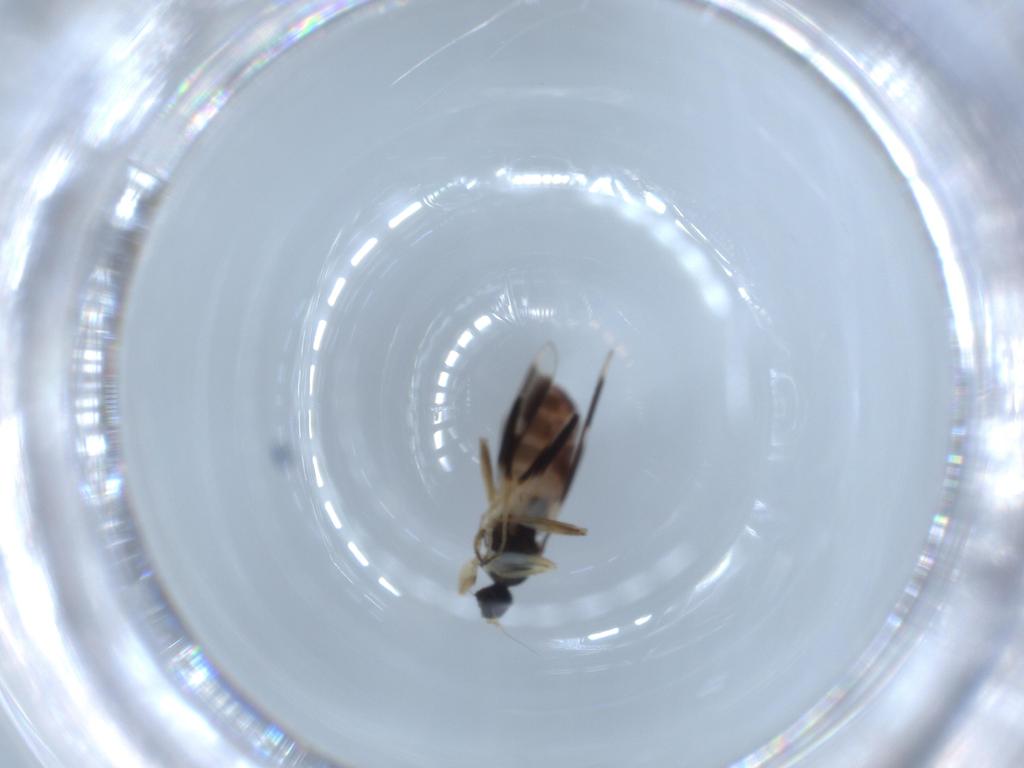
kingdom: Animalia
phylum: Arthropoda
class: Insecta
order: Diptera
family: Hybotidae
